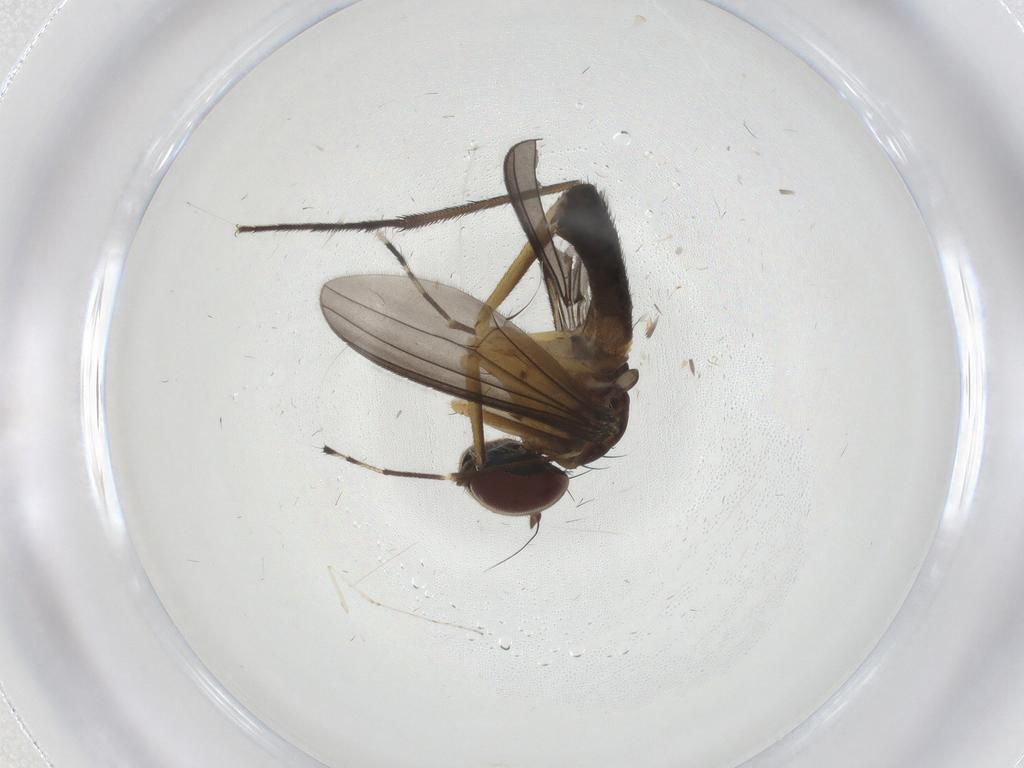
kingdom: Animalia
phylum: Arthropoda
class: Insecta
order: Diptera
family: Dolichopodidae
